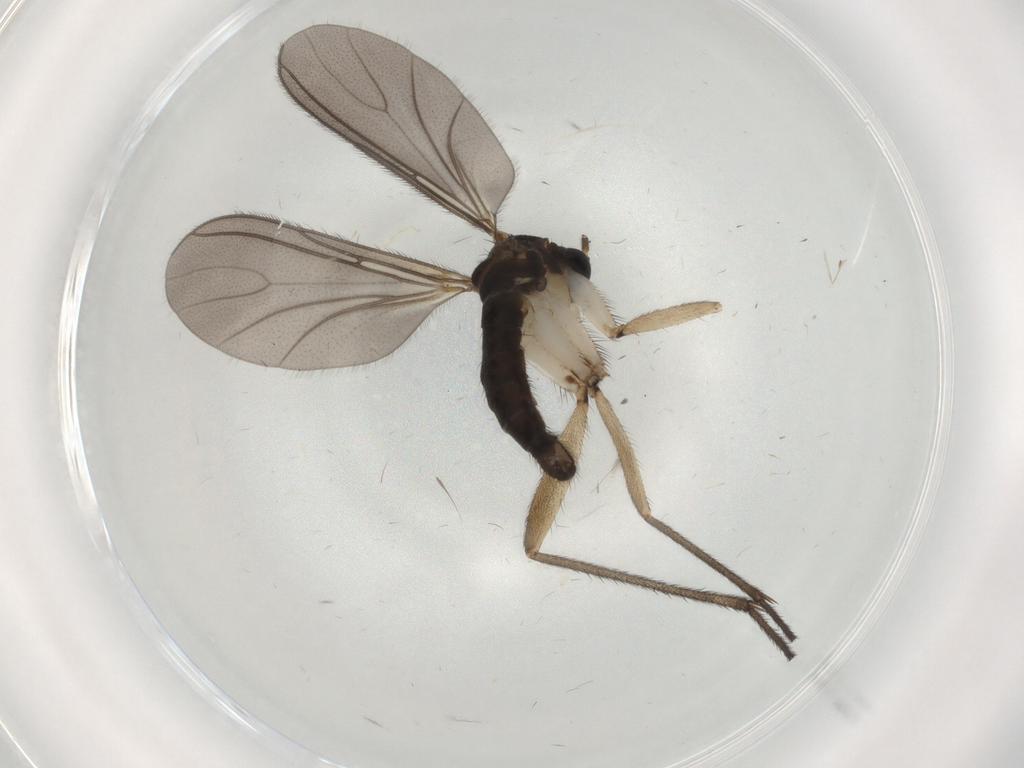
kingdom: Animalia
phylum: Arthropoda
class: Insecta
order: Diptera
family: Sciaridae
